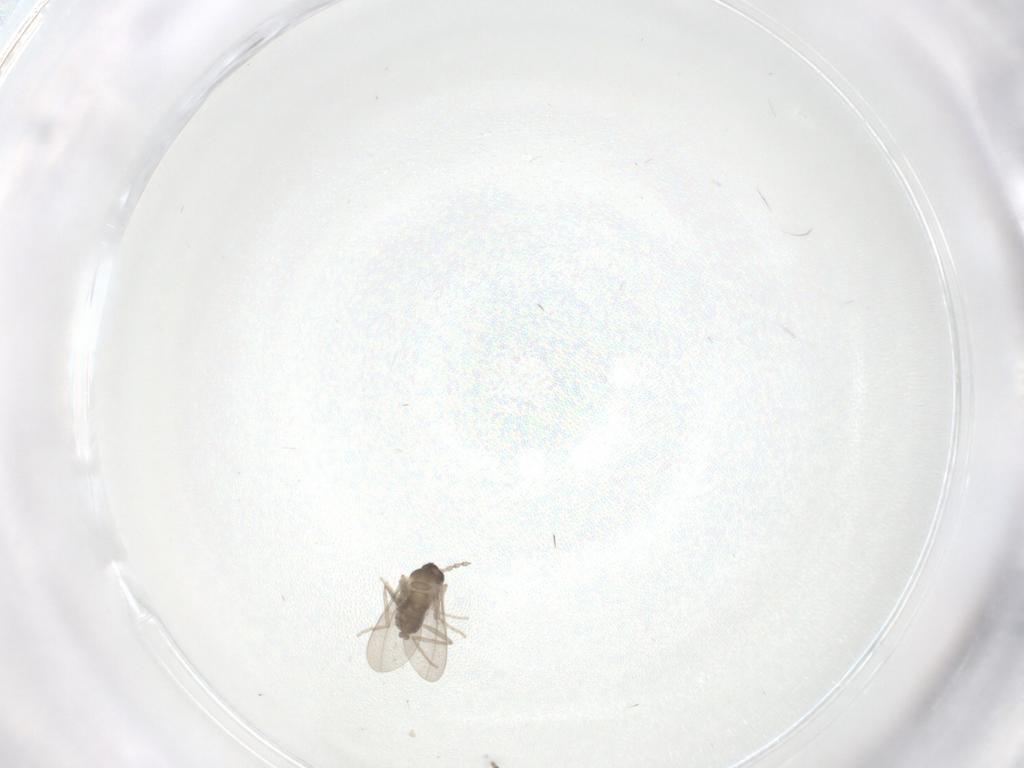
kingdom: Animalia
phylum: Arthropoda
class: Insecta
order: Diptera
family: Cecidomyiidae
